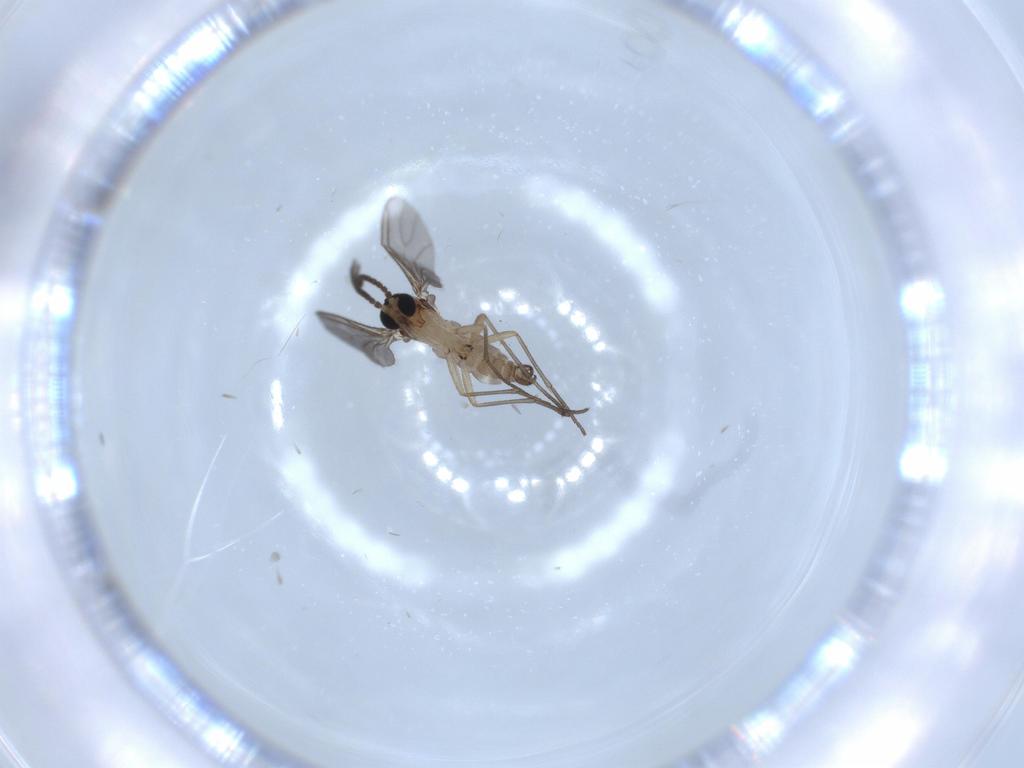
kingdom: Animalia
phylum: Arthropoda
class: Insecta
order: Diptera
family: Sciaridae
